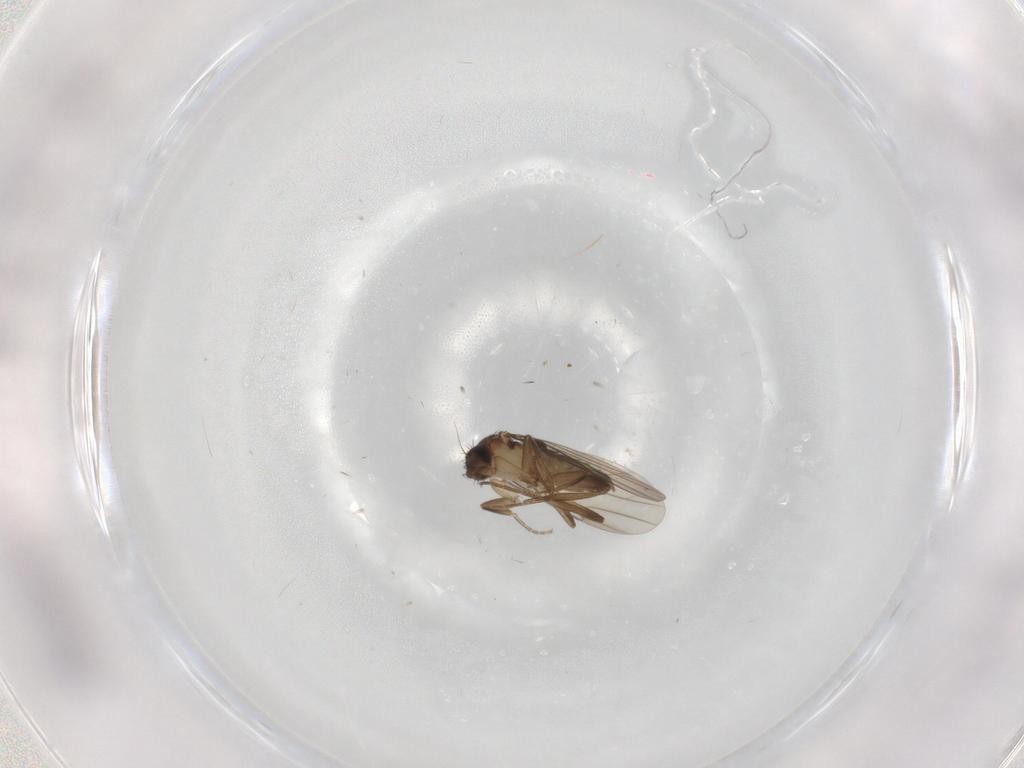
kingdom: Animalia
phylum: Arthropoda
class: Insecta
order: Diptera
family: Phoridae
